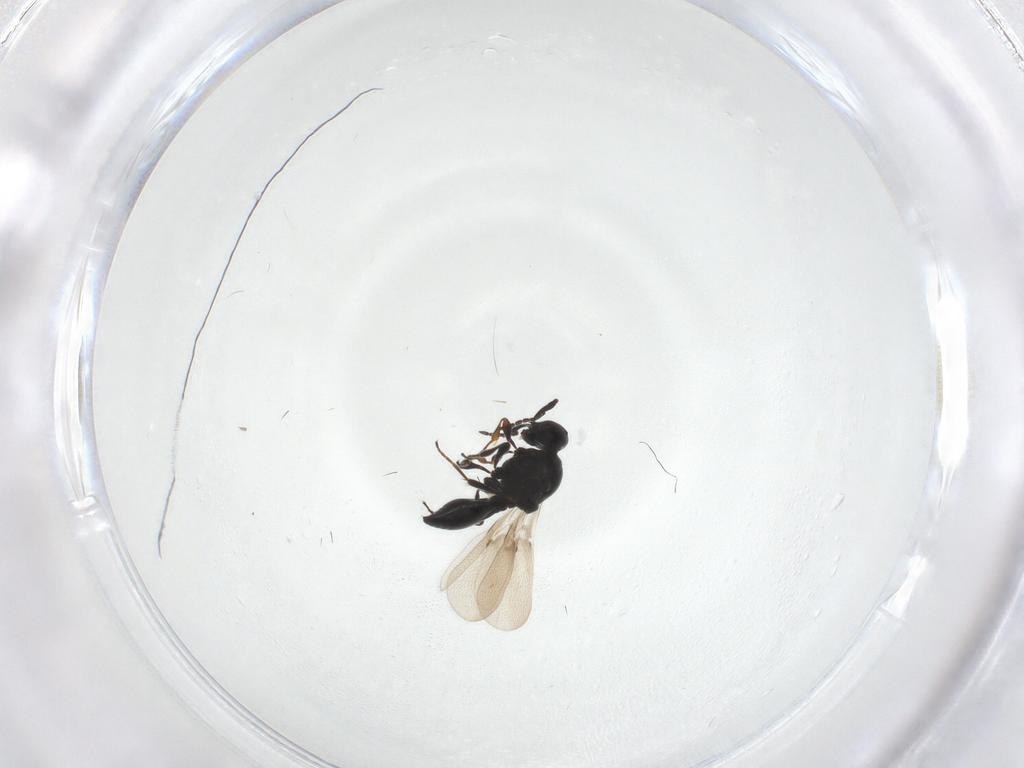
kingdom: Animalia
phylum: Arthropoda
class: Insecta
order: Hymenoptera
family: Platygastridae
